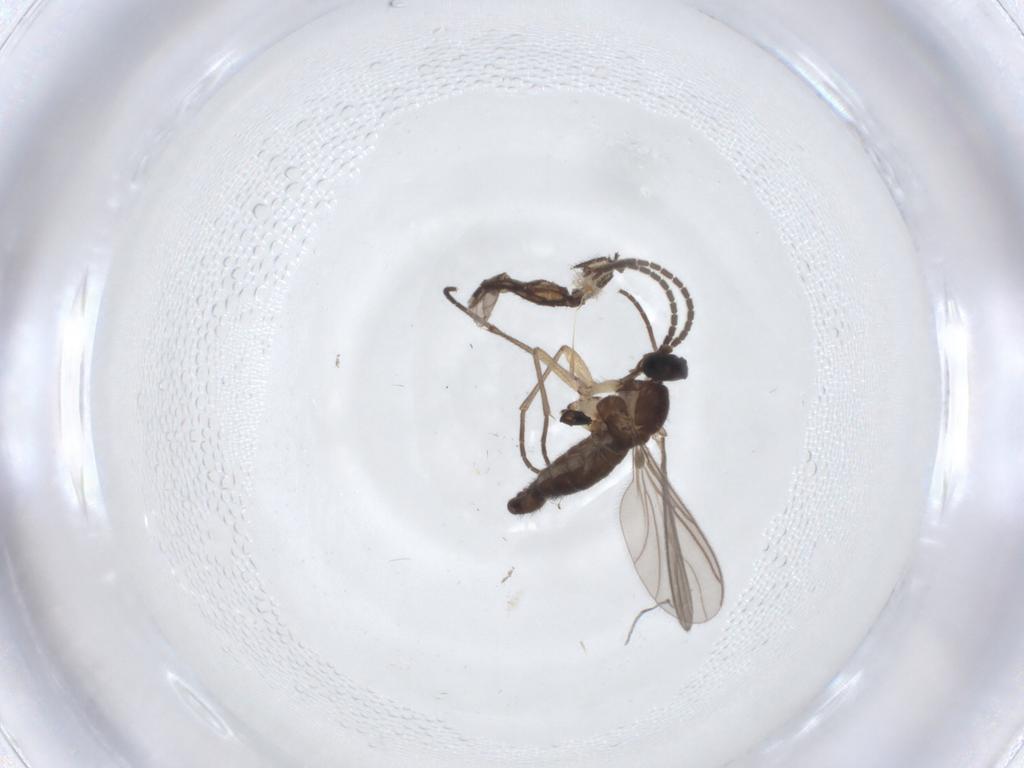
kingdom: Animalia
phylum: Arthropoda
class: Insecta
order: Diptera
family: Sciaridae
